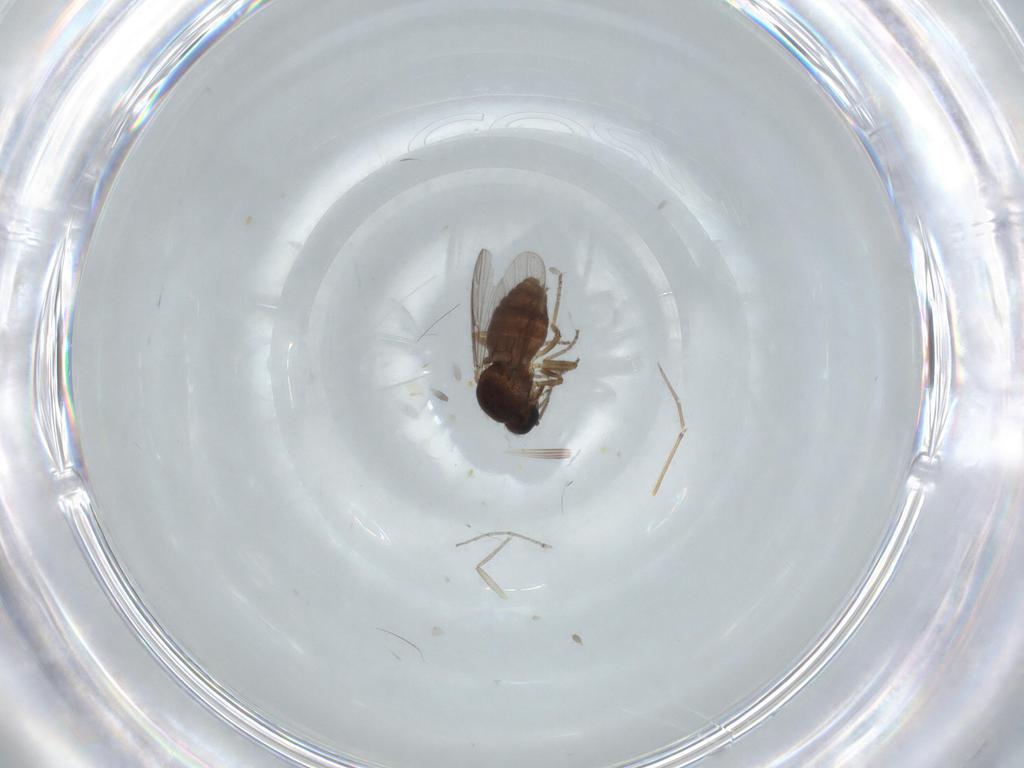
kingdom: Animalia
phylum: Arthropoda
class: Insecta
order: Diptera
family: Ceratopogonidae
